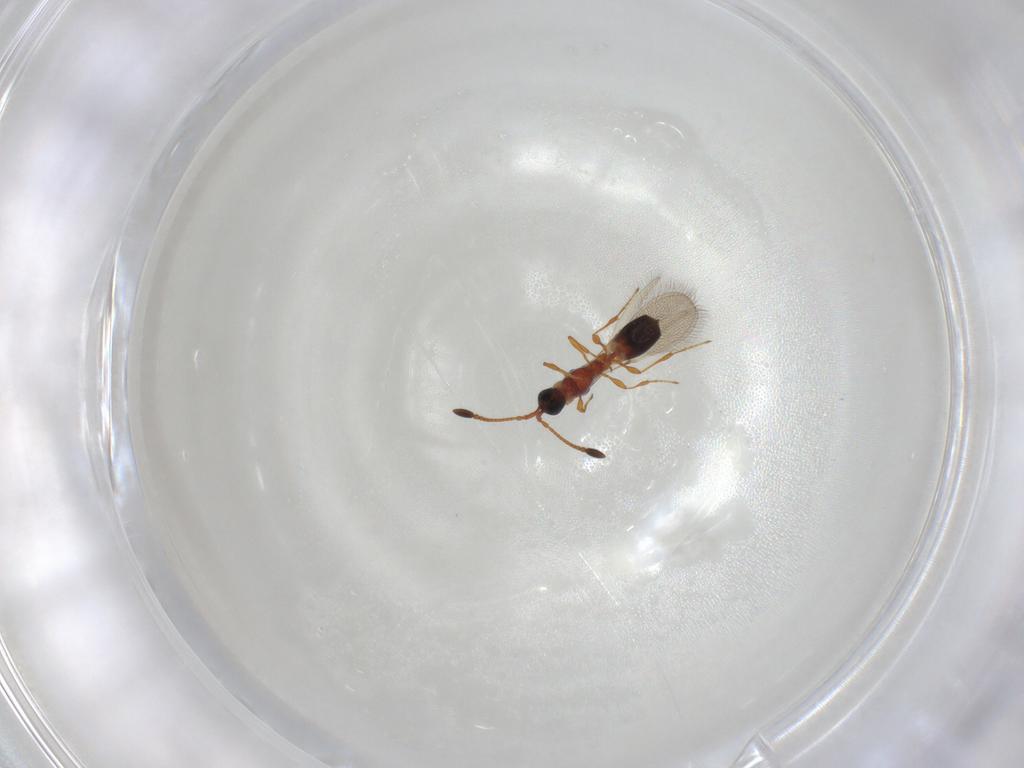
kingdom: Animalia
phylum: Arthropoda
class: Insecta
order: Hymenoptera
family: Diapriidae
